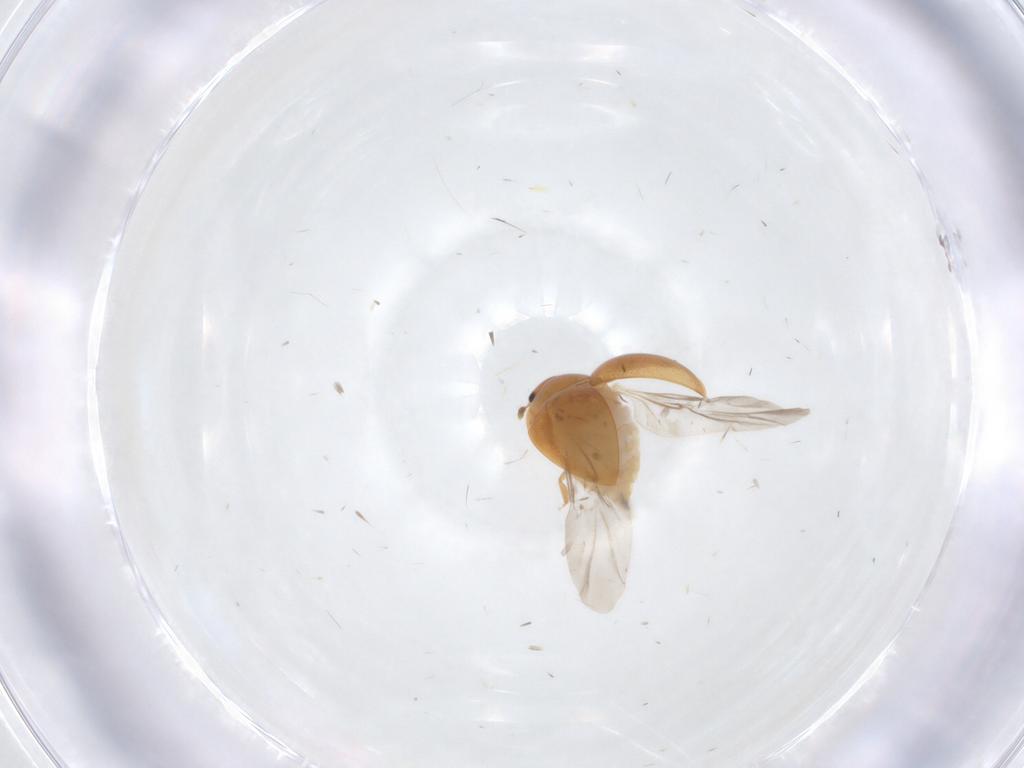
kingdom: Animalia
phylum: Arthropoda
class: Insecta
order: Coleoptera
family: Phalacridae
